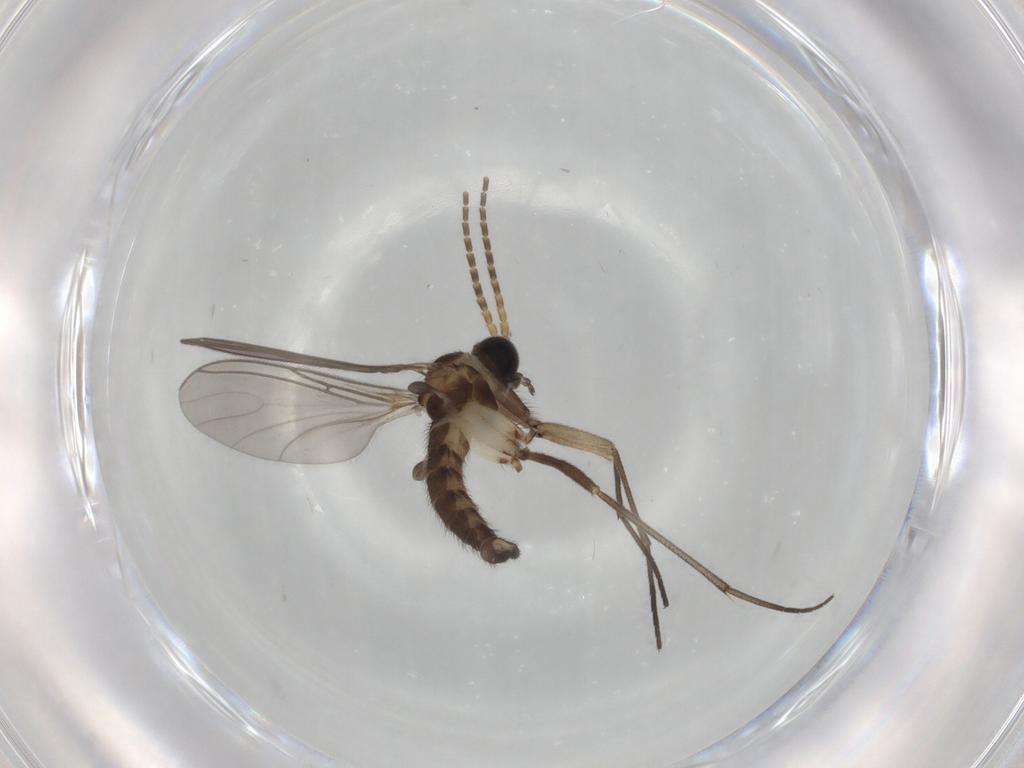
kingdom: Animalia
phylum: Arthropoda
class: Insecta
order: Diptera
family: Sciaridae
